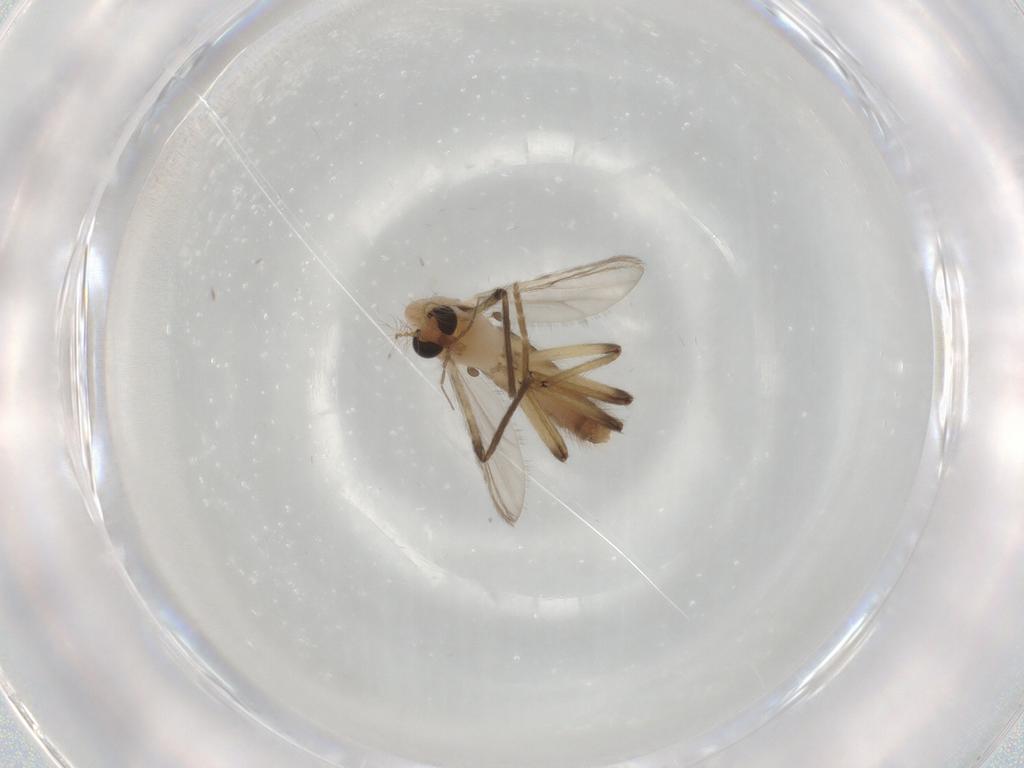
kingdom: Animalia
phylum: Arthropoda
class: Insecta
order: Diptera
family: Chironomidae
